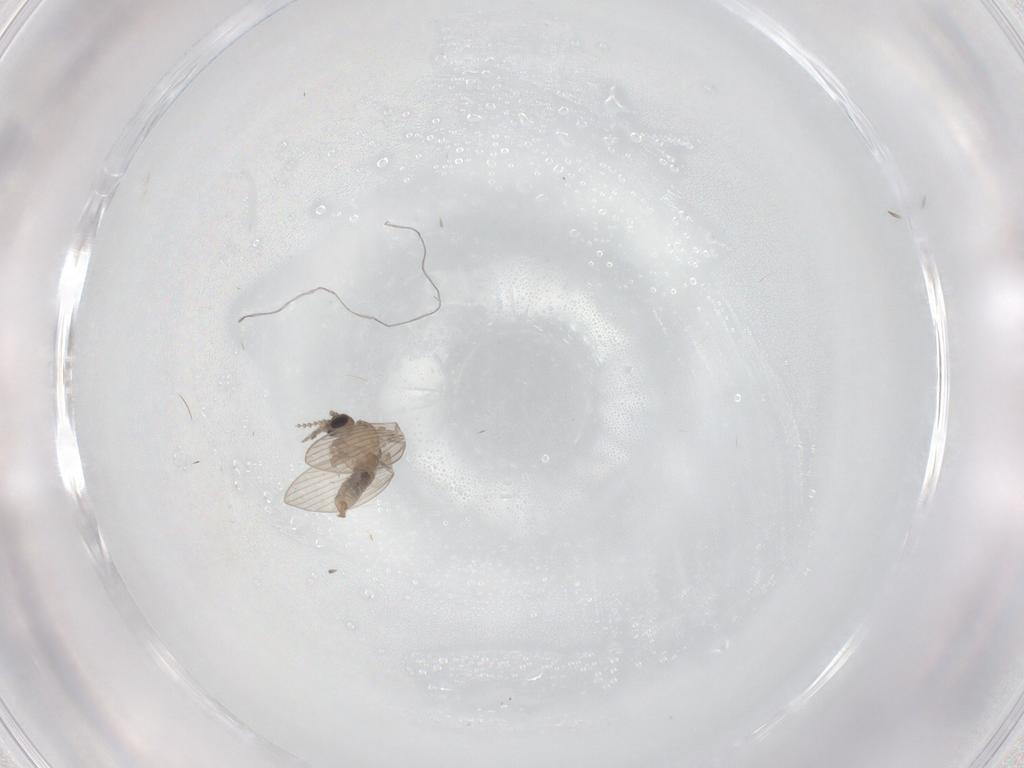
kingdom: Animalia
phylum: Arthropoda
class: Insecta
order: Diptera
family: Psychodidae
